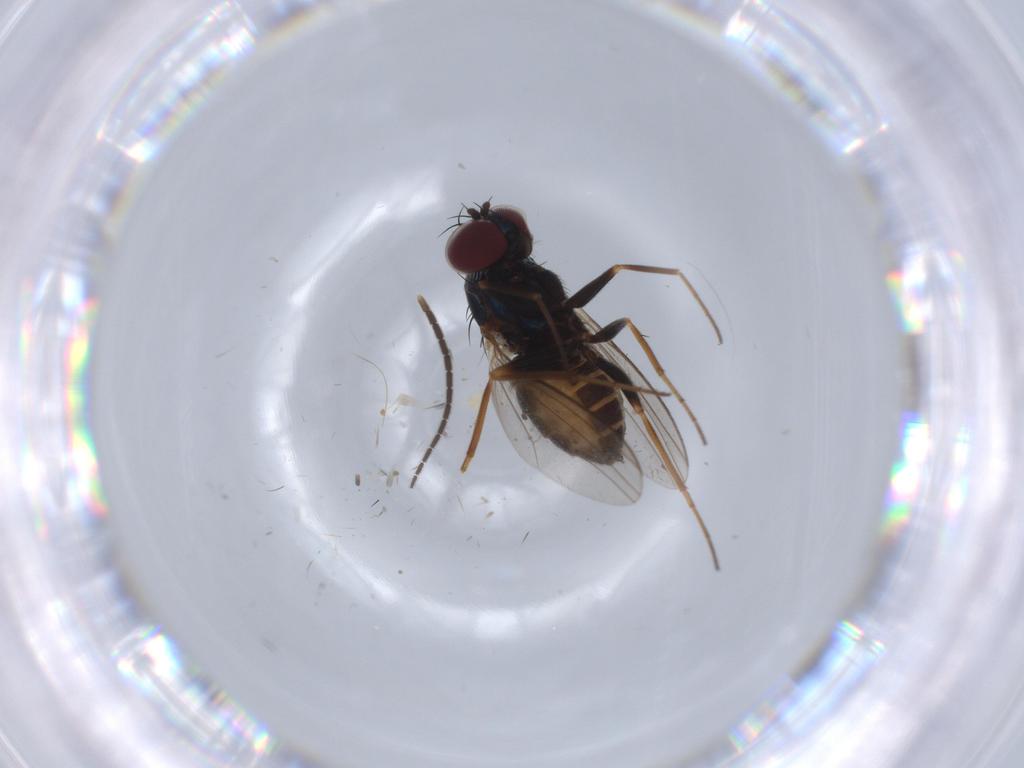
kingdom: Animalia
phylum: Arthropoda
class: Insecta
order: Diptera
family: Dolichopodidae
